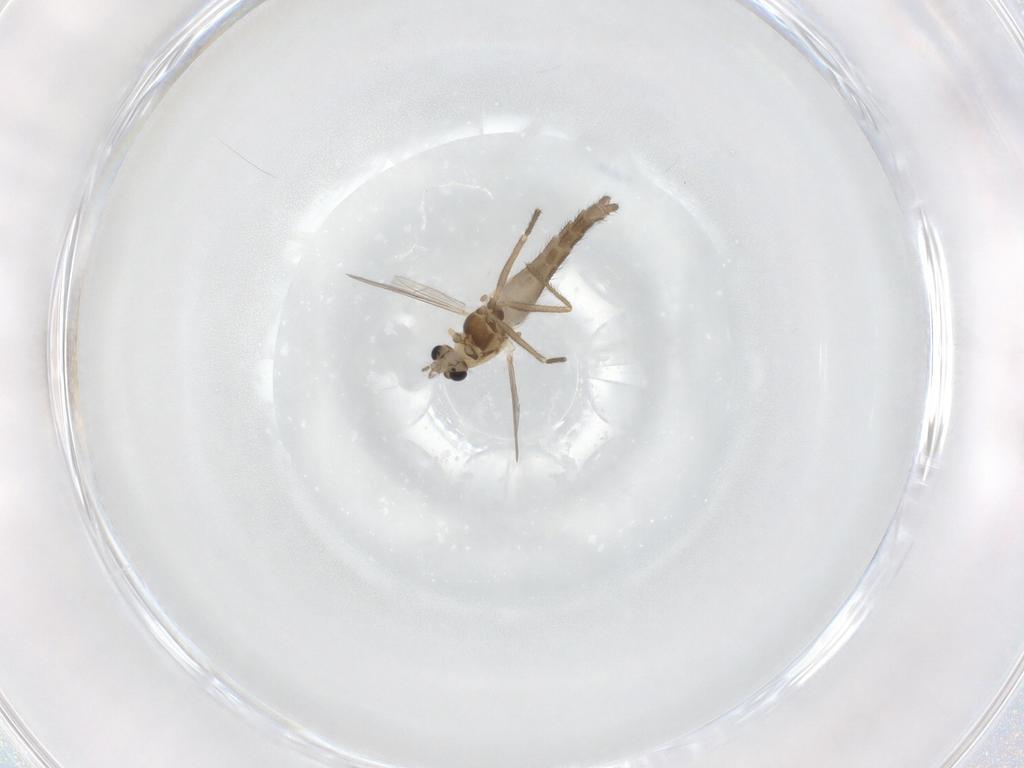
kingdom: Animalia
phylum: Arthropoda
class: Insecta
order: Diptera
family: Chironomidae
